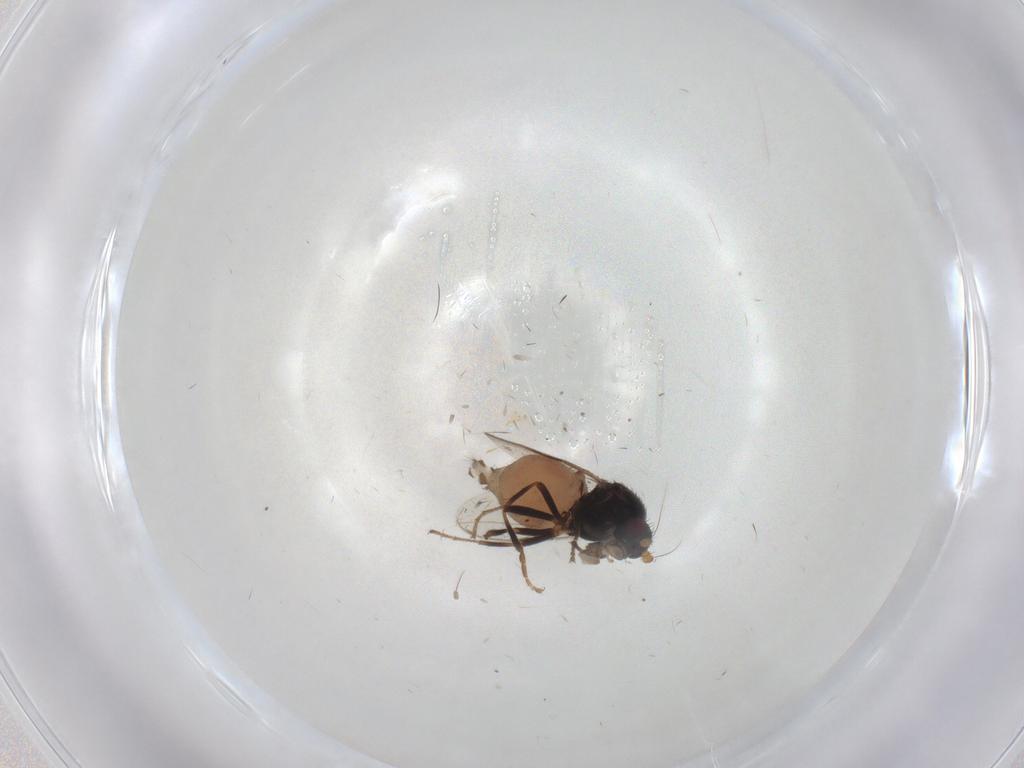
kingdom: Animalia
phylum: Arthropoda
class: Insecta
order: Diptera
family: Sphaeroceridae
